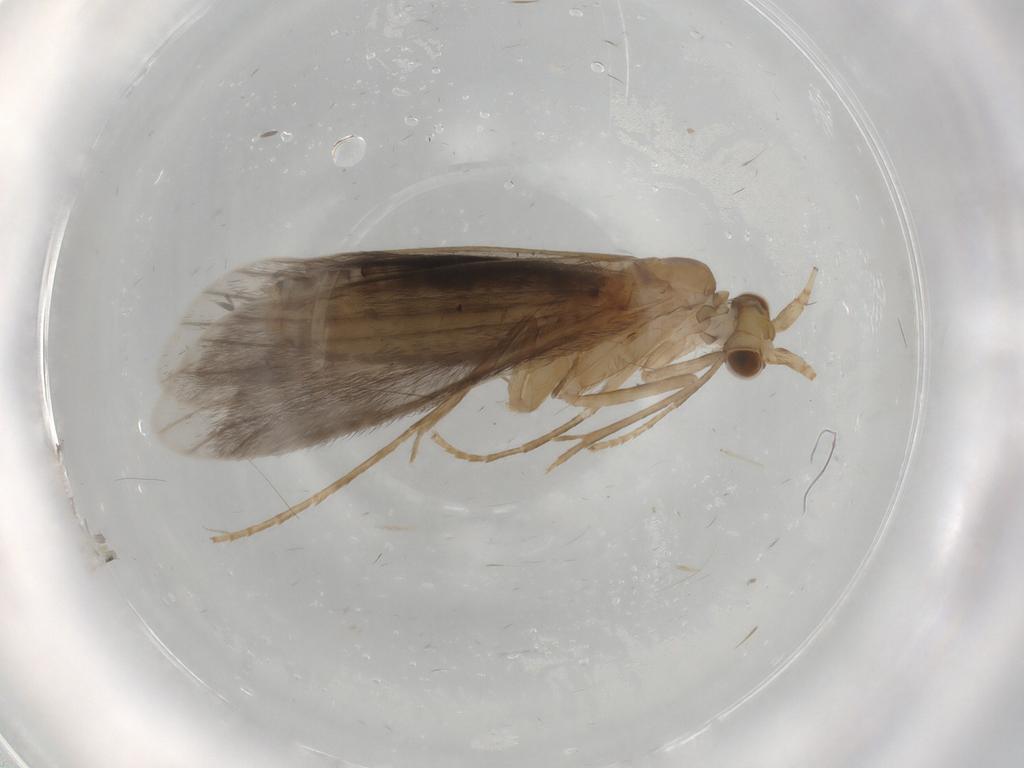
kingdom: Animalia
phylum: Arthropoda
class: Insecta
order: Trichoptera
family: Leptoceridae
